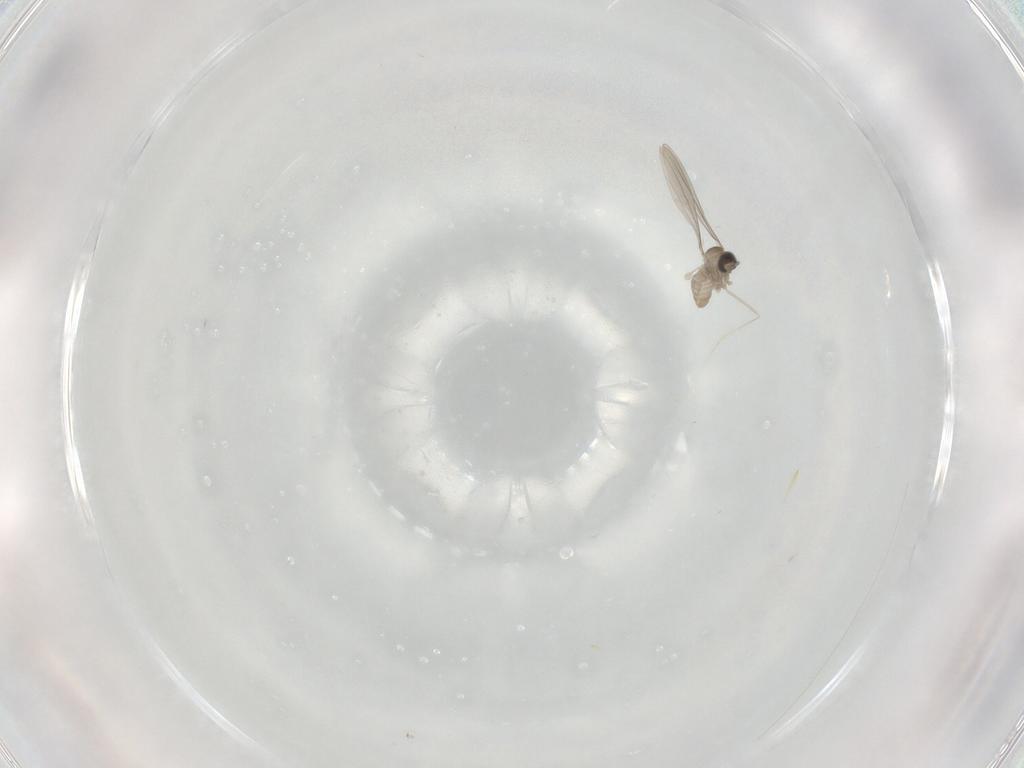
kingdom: Animalia
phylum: Arthropoda
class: Insecta
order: Diptera
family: Cecidomyiidae
